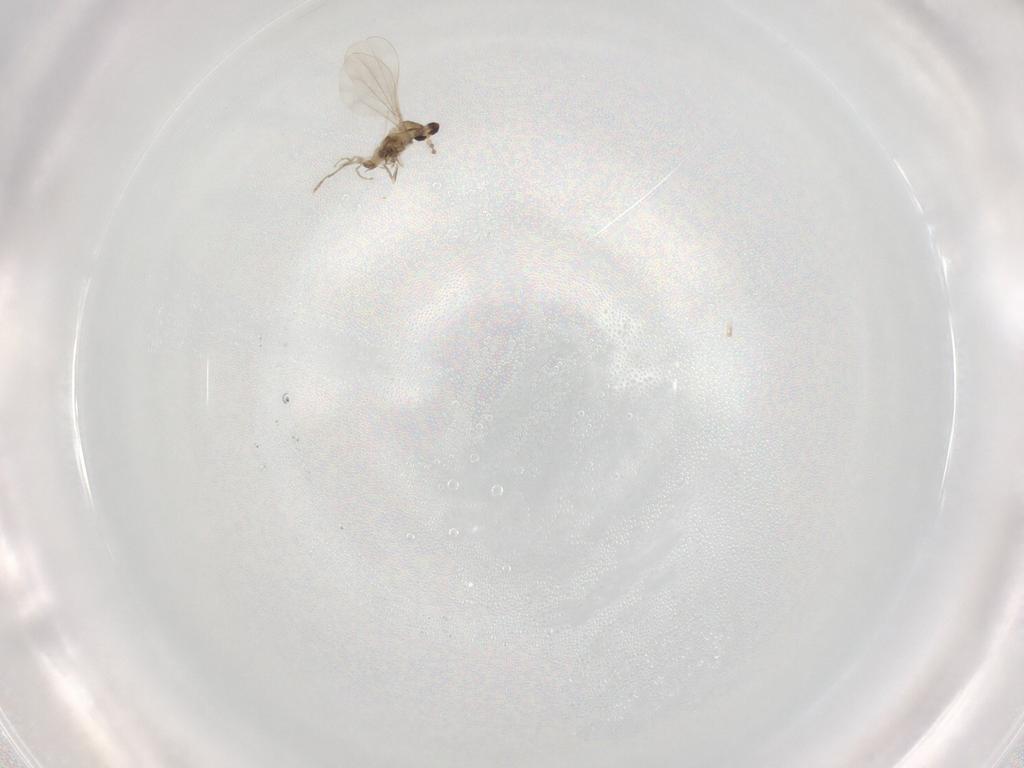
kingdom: Animalia
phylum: Arthropoda
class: Insecta
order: Diptera
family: Cecidomyiidae
